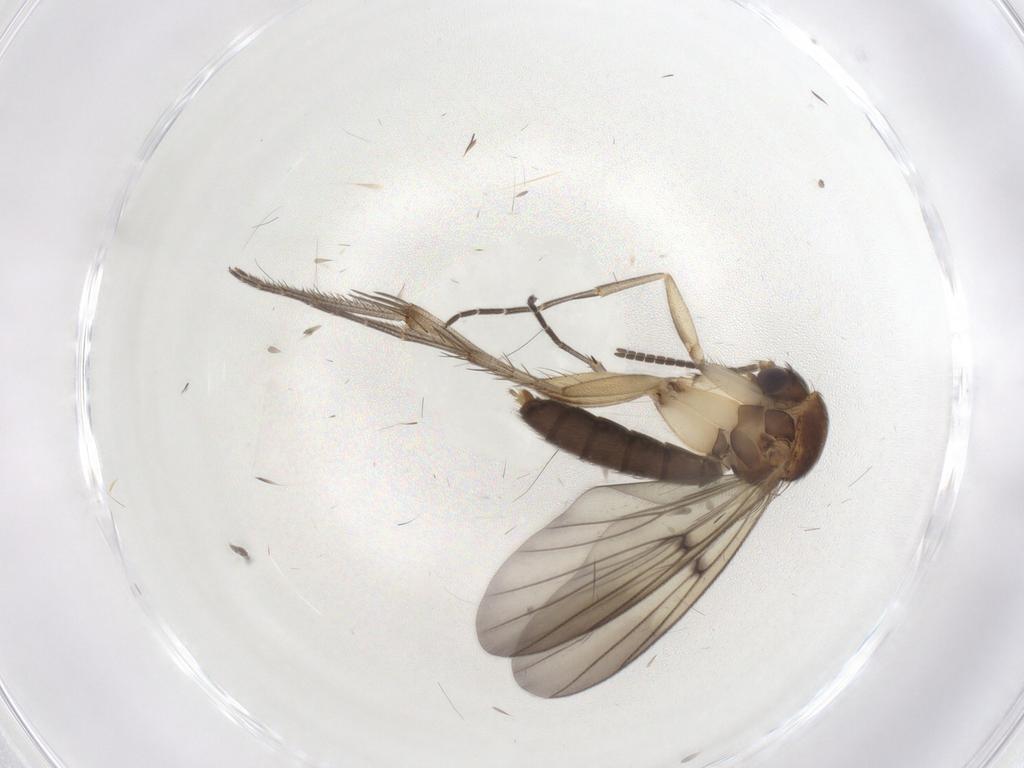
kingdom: Animalia
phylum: Arthropoda
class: Insecta
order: Diptera
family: Mycetophilidae
